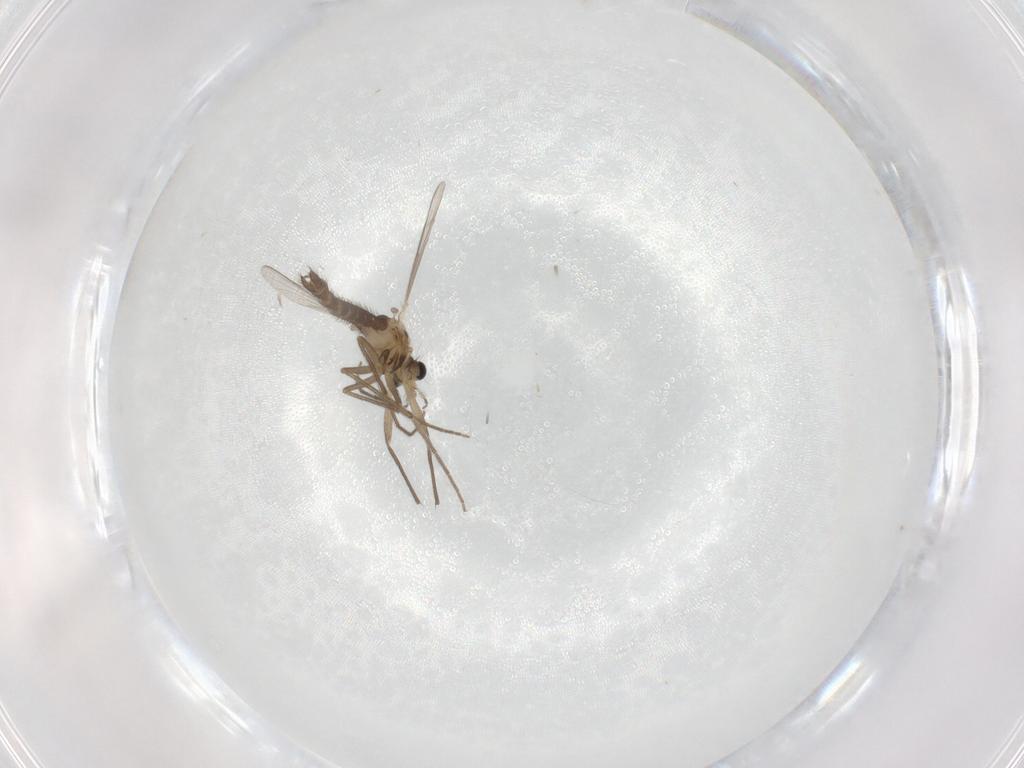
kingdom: Animalia
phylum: Arthropoda
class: Insecta
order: Diptera
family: Chironomidae
